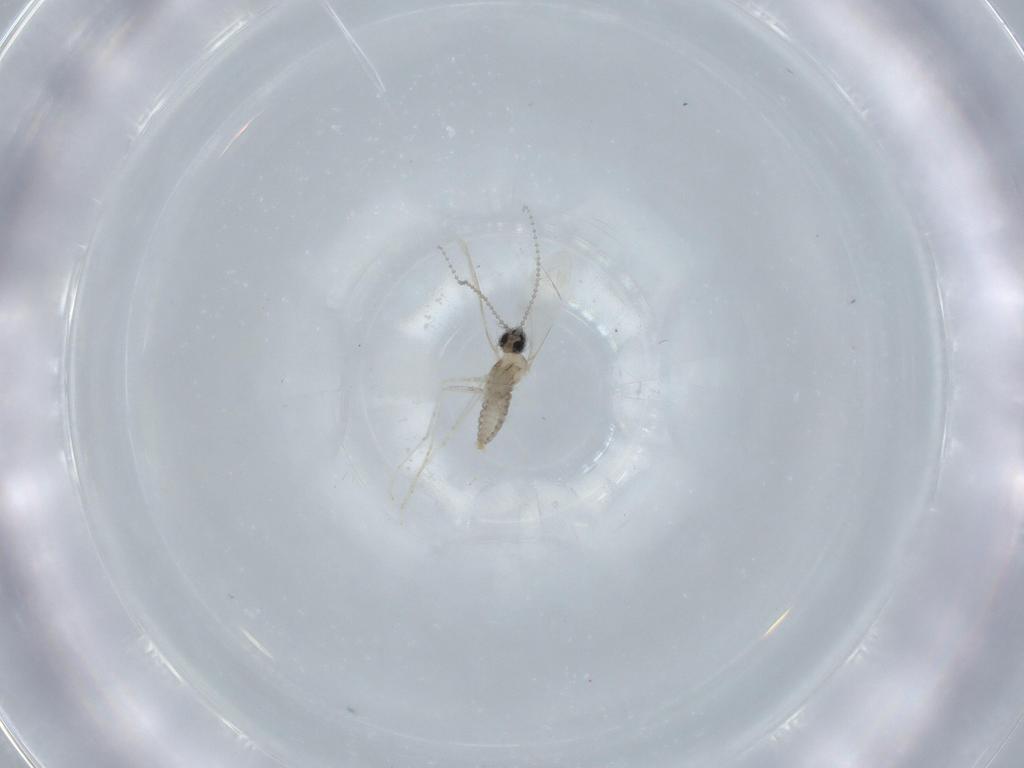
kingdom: Animalia
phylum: Arthropoda
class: Insecta
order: Diptera
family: Cecidomyiidae
